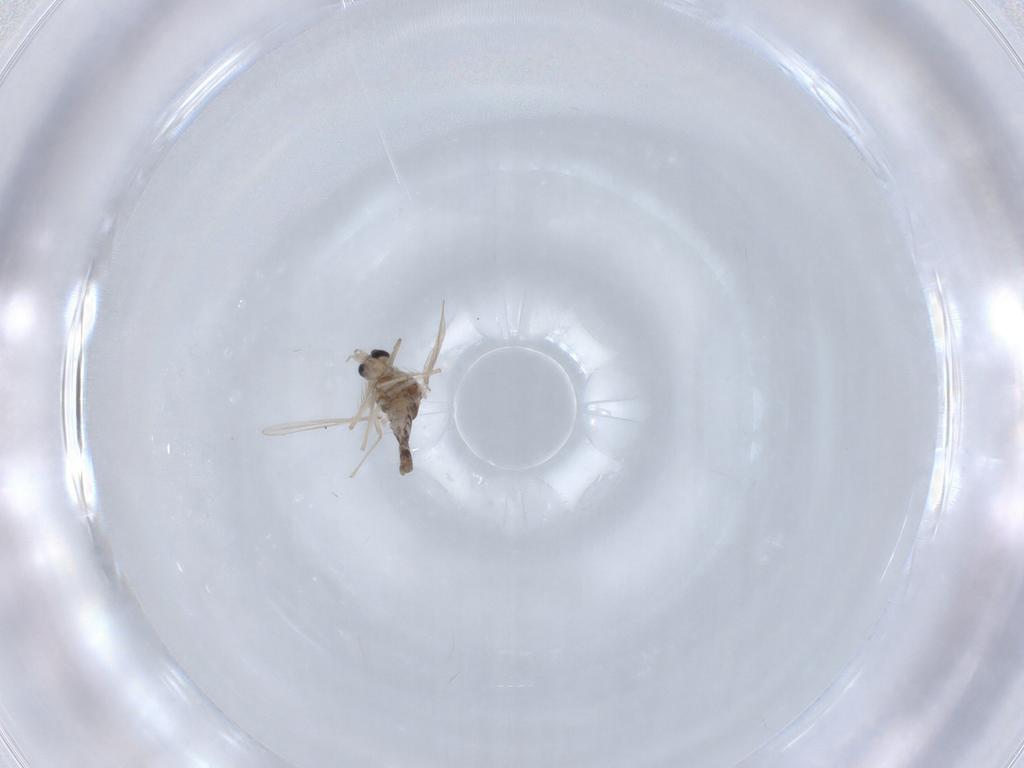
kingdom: Animalia
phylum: Arthropoda
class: Insecta
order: Diptera
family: Chironomidae
